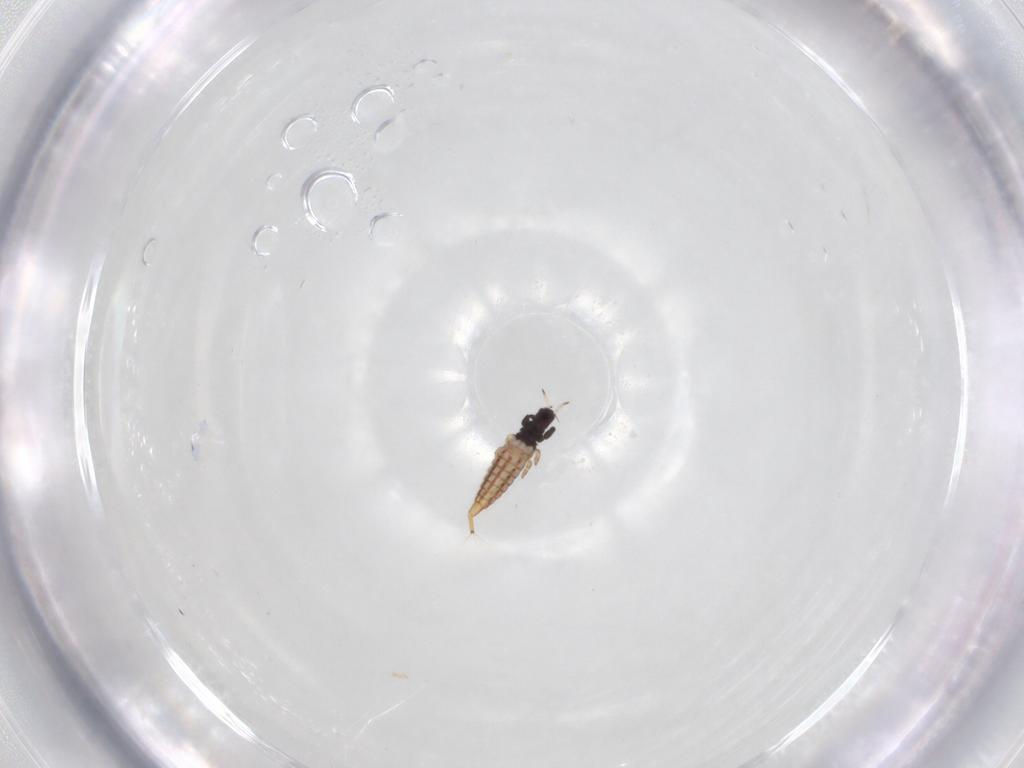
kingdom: Animalia
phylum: Arthropoda
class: Insecta
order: Thysanoptera
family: Phlaeothripidae
